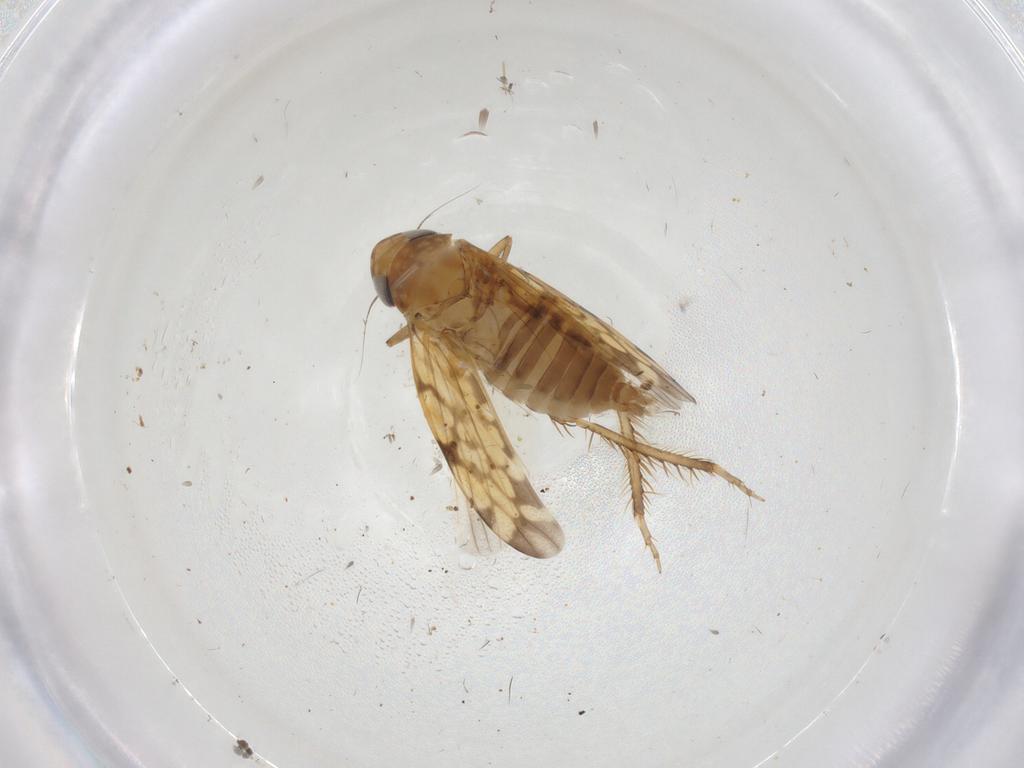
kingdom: Animalia
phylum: Arthropoda
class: Insecta
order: Hemiptera
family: Cicadellidae
